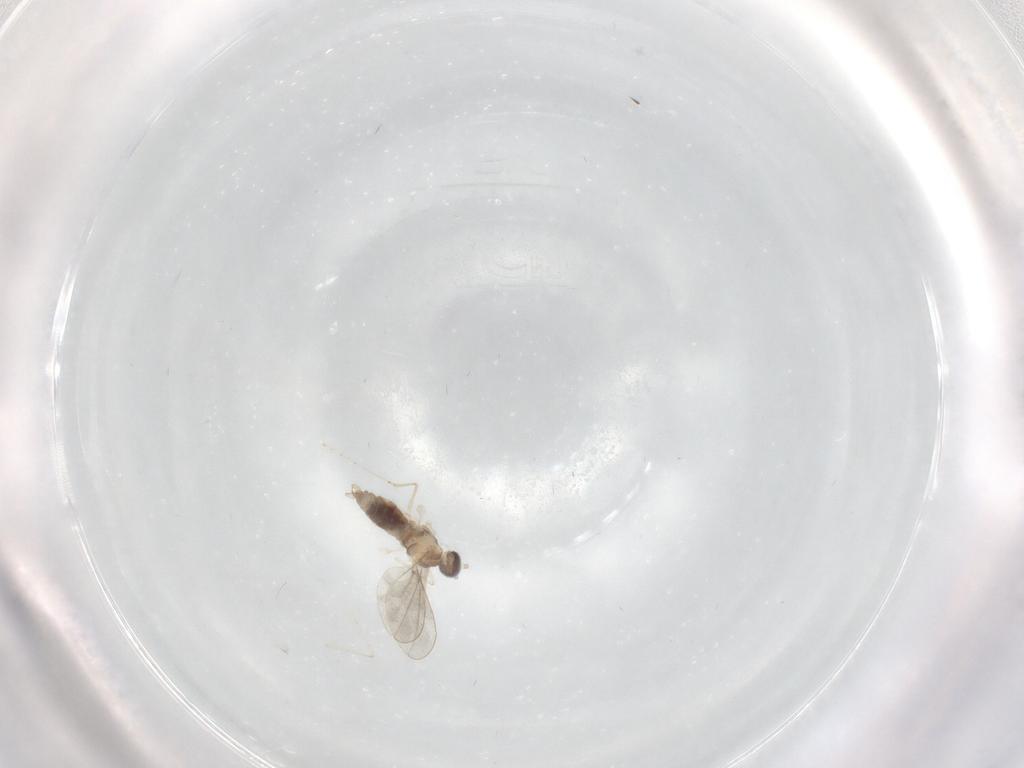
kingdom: Animalia
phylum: Arthropoda
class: Insecta
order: Diptera
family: Cecidomyiidae
